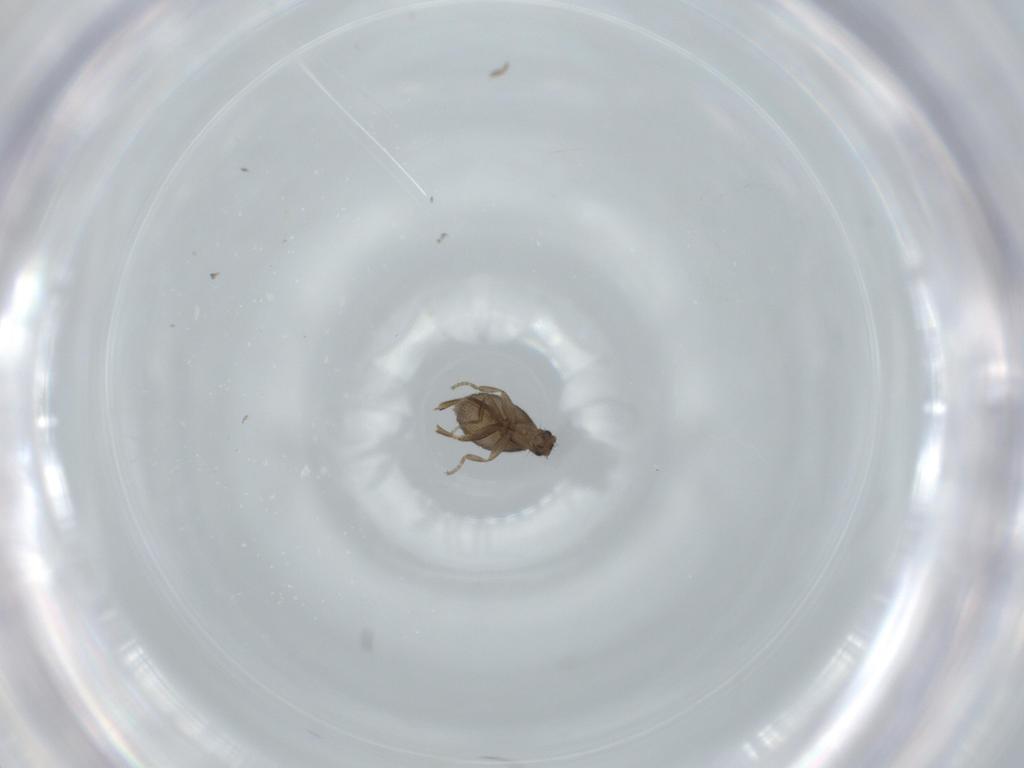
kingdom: Animalia
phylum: Arthropoda
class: Insecta
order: Diptera
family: Phoridae
